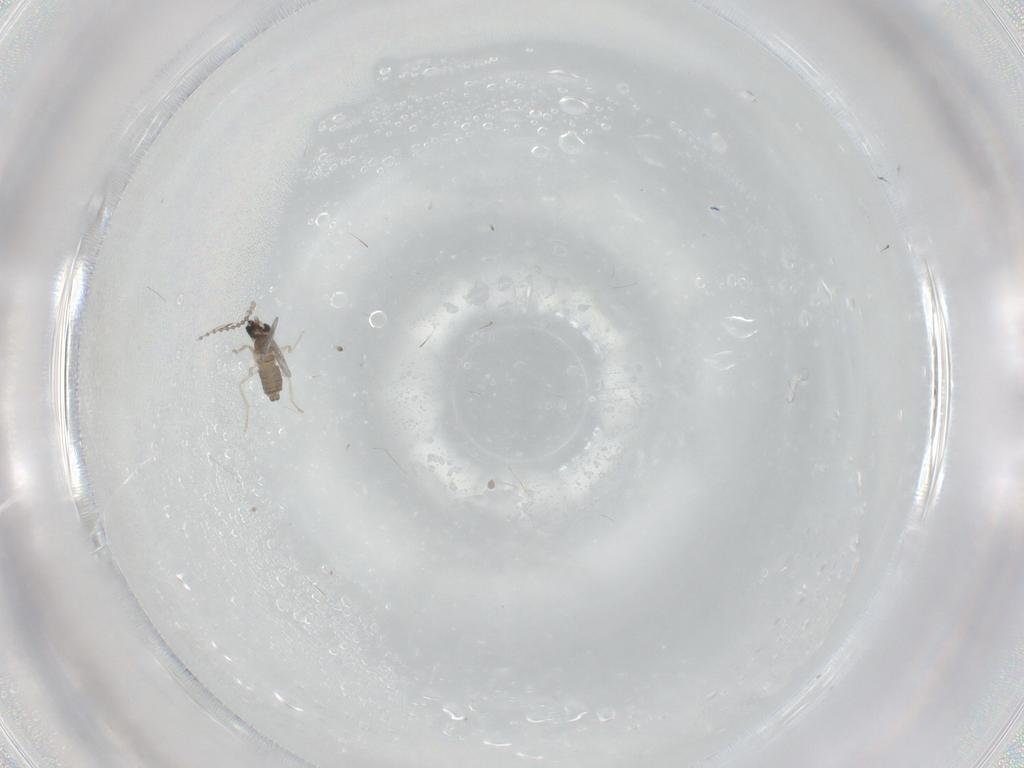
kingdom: Animalia
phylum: Arthropoda
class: Insecta
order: Diptera
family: Cecidomyiidae
